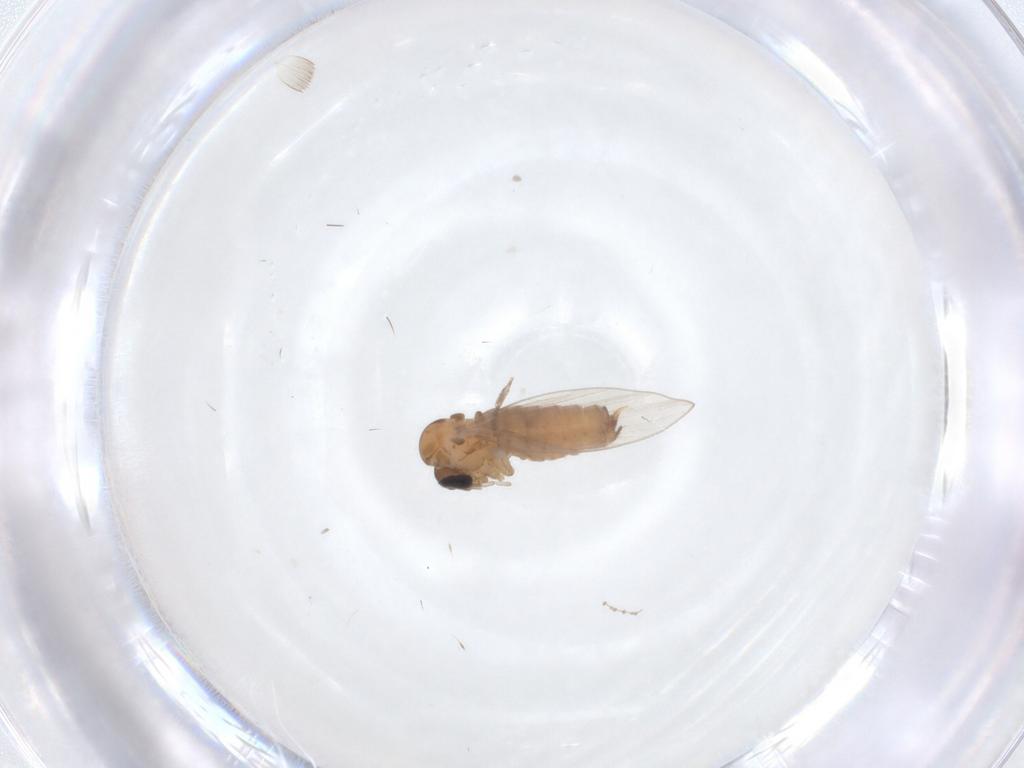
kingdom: Animalia
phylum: Arthropoda
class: Insecta
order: Diptera
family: Psychodidae
